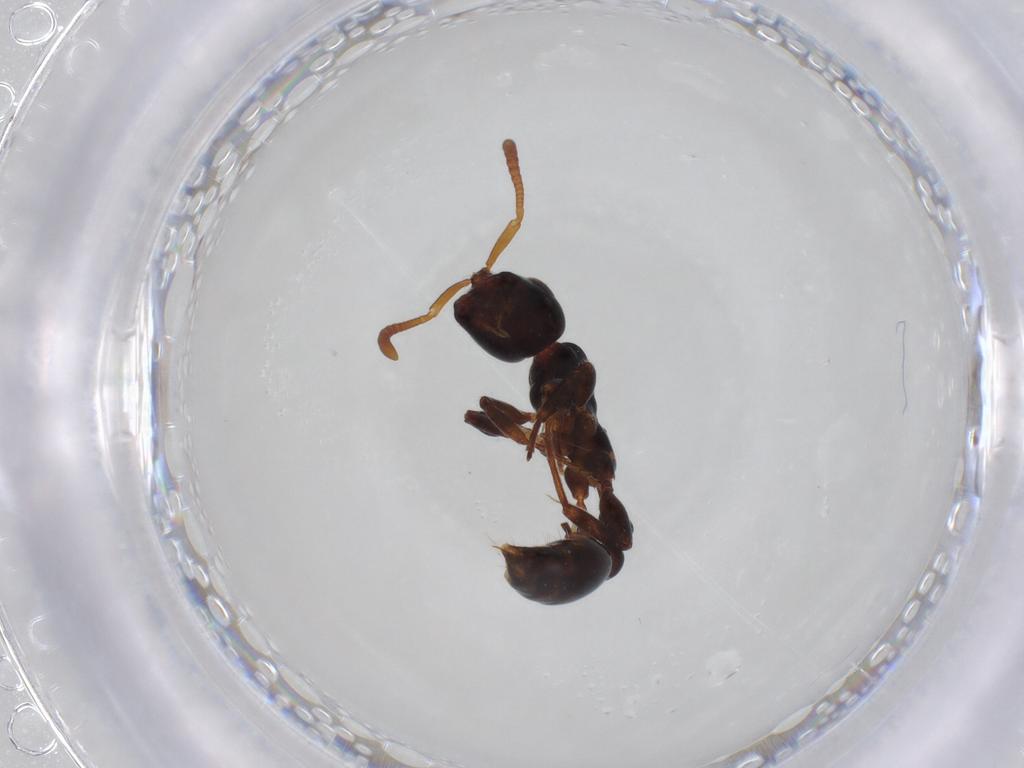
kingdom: Animalia
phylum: Arthropoda
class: Insecta
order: Hymenoptera
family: Formicidae
